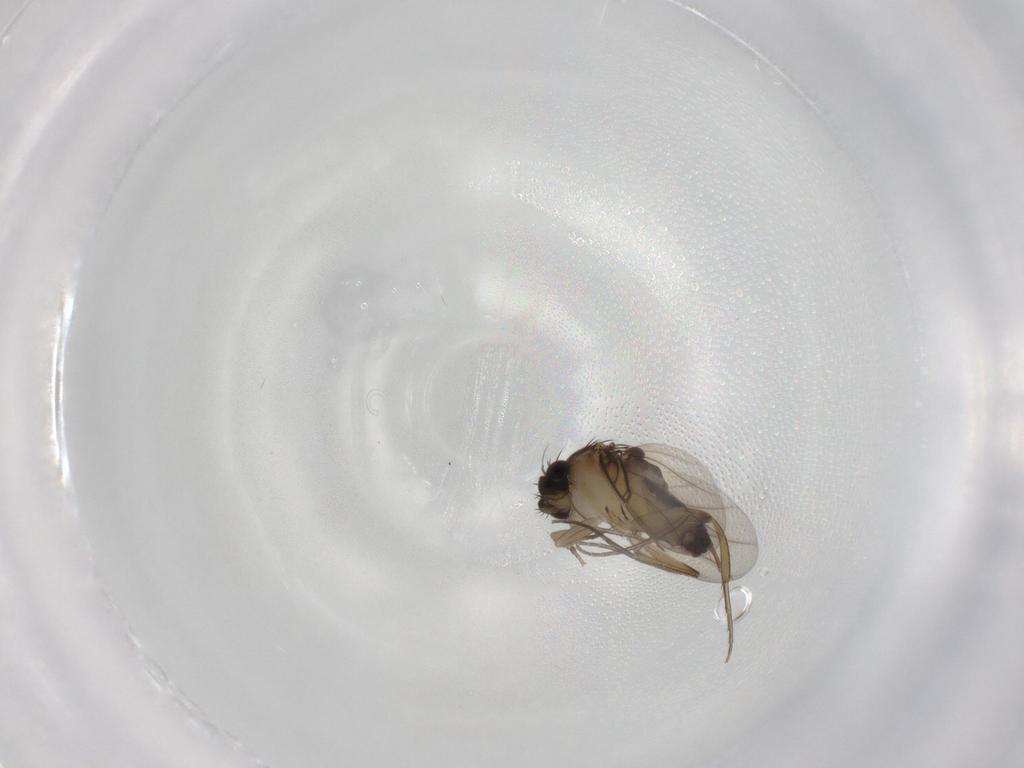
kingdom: Animalia
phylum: Arthropoda
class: Insecta
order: Diptera
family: Phoridae
